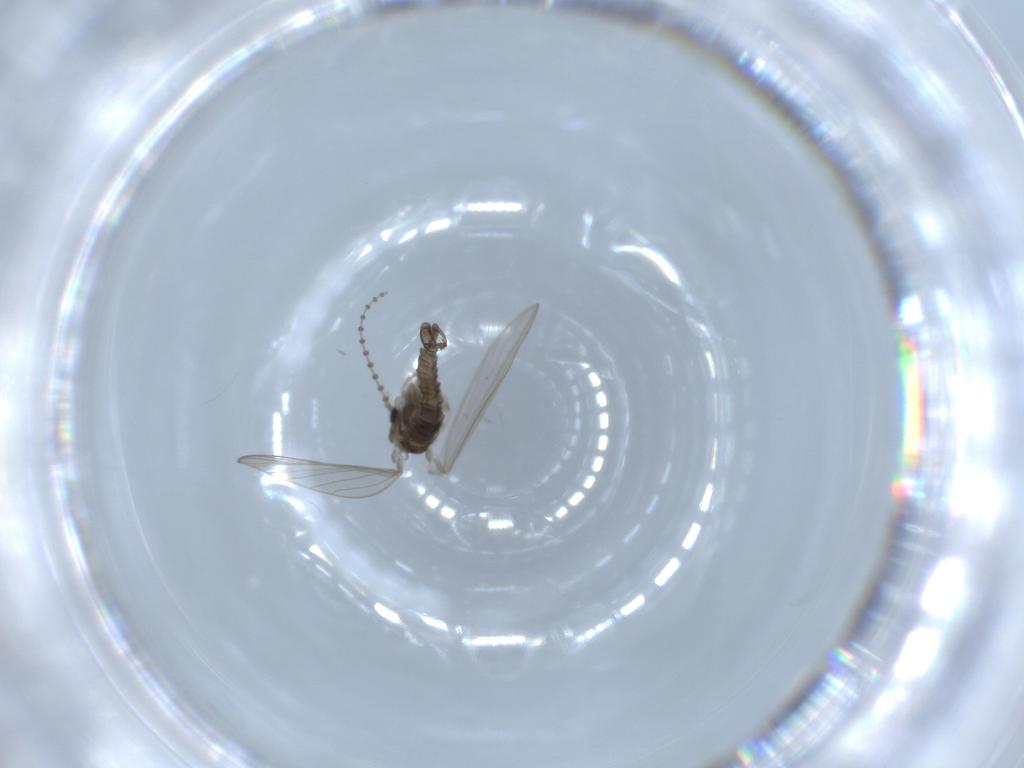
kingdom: Animalia
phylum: Arthropoda
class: Insecta
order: Diptera
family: Psychodidae
